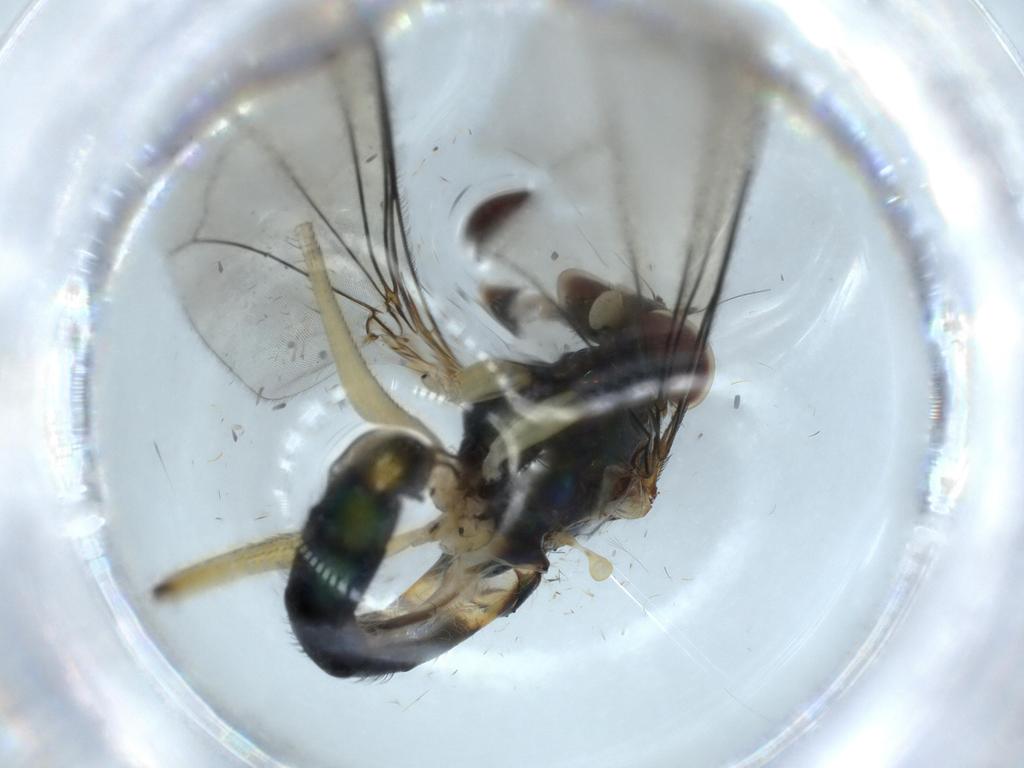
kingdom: Animalia
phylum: Arthropoda
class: Insecta
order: Diptera
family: Dolichopodidae
